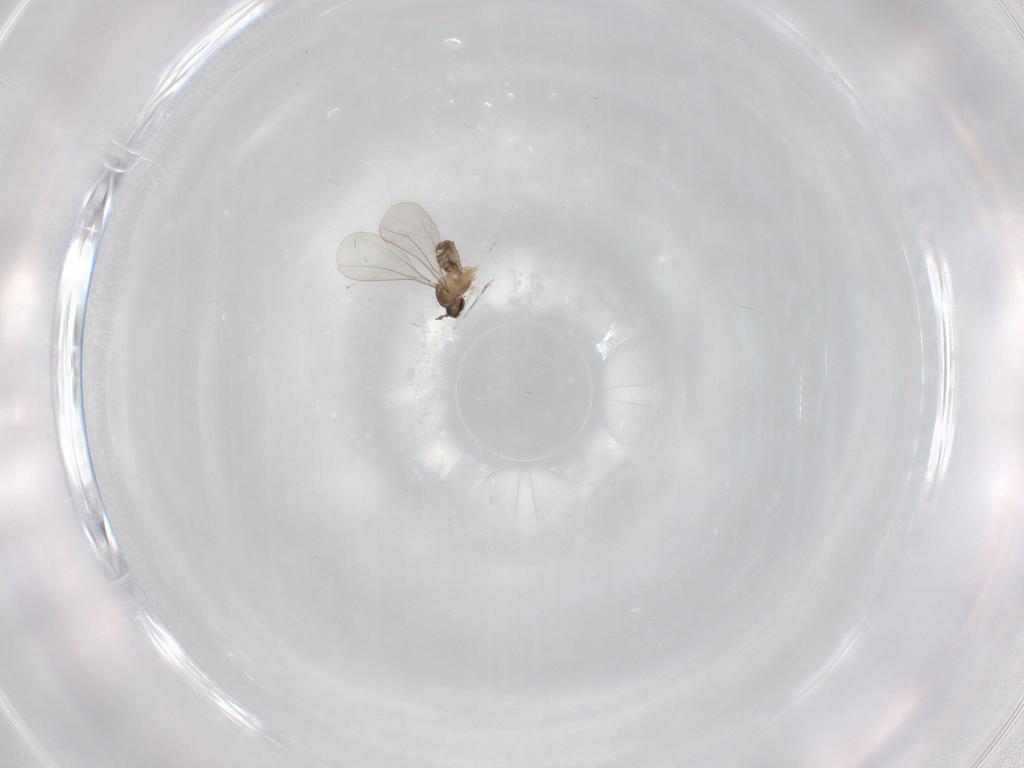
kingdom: Animalia
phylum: Arthropoda
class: Insecta
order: Diptera
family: Cecidomyiidae
